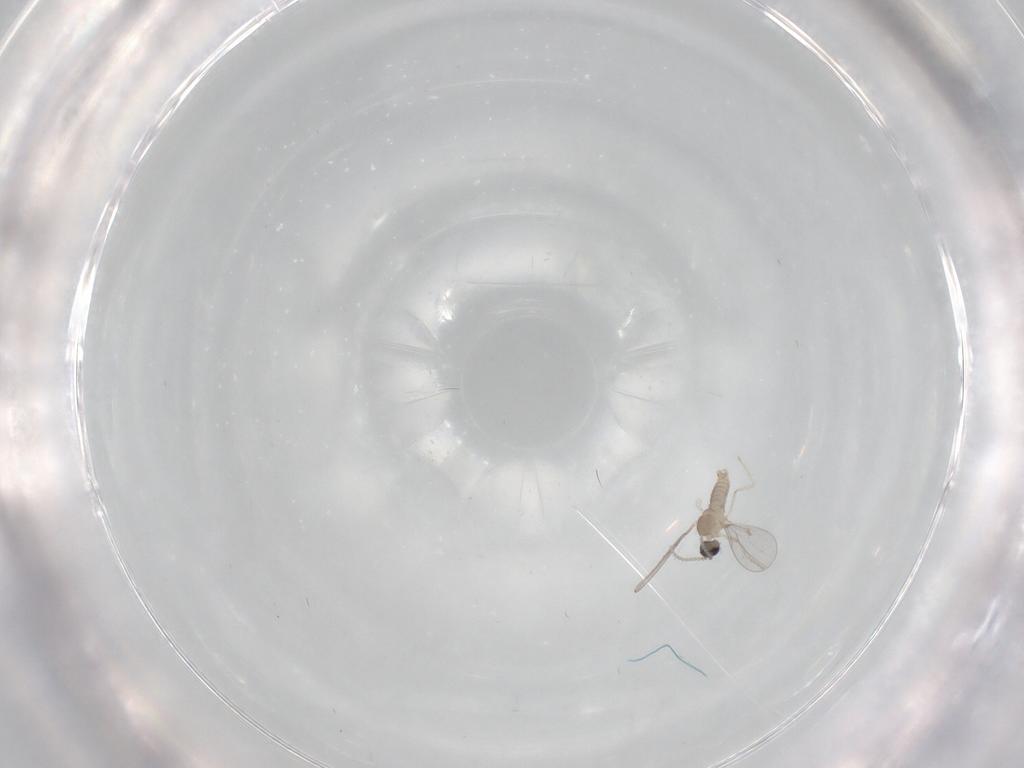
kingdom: Animalia
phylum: Arthropoda
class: Insecta
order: Diptera
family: Cecidomyiidae
